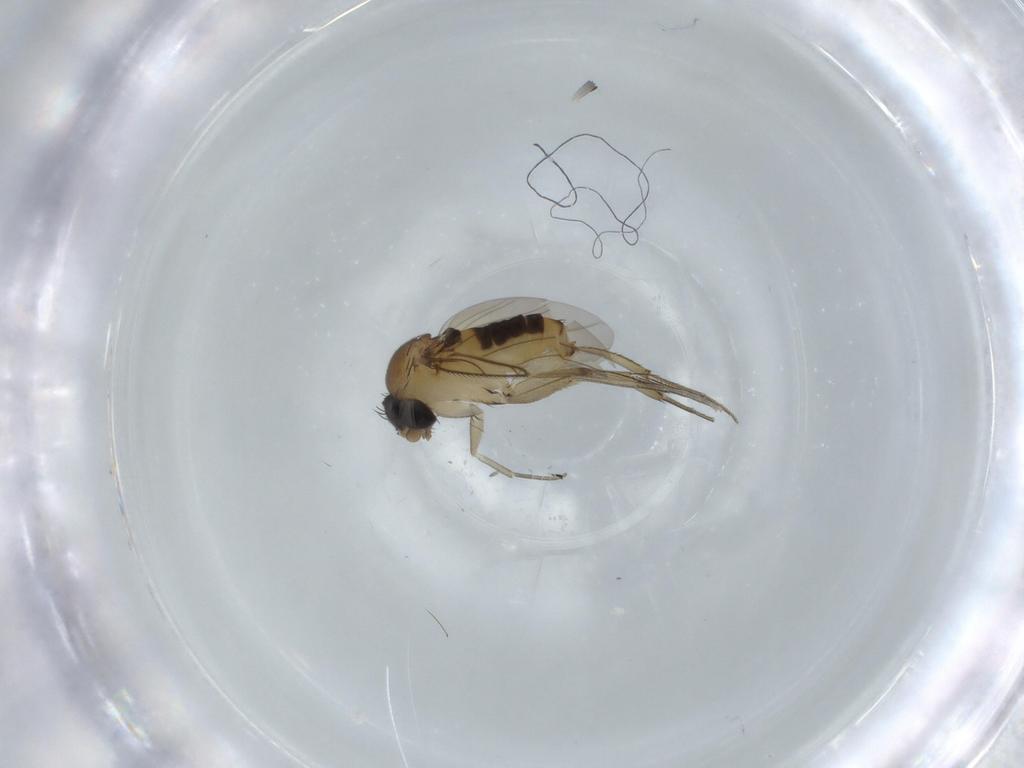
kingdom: Animalia
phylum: Arthropoda
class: Insecta
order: Diptera
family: Phoridae
